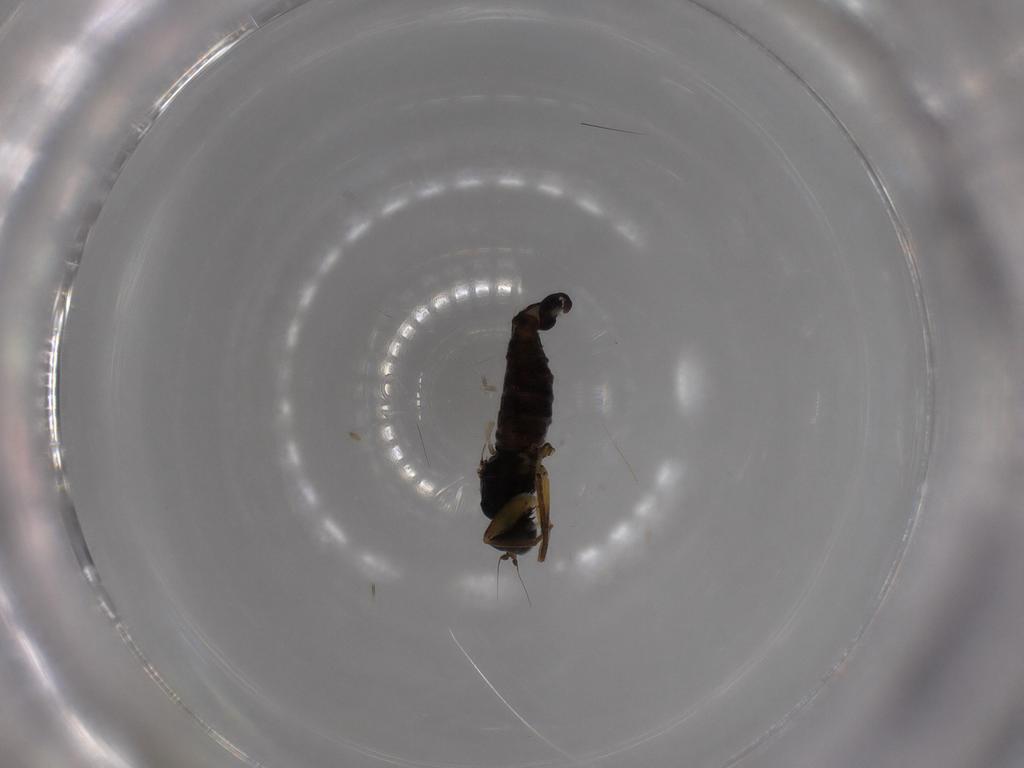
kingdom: Animalia
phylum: Arthropoda
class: Insecta
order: Diptera
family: Hybotidae
